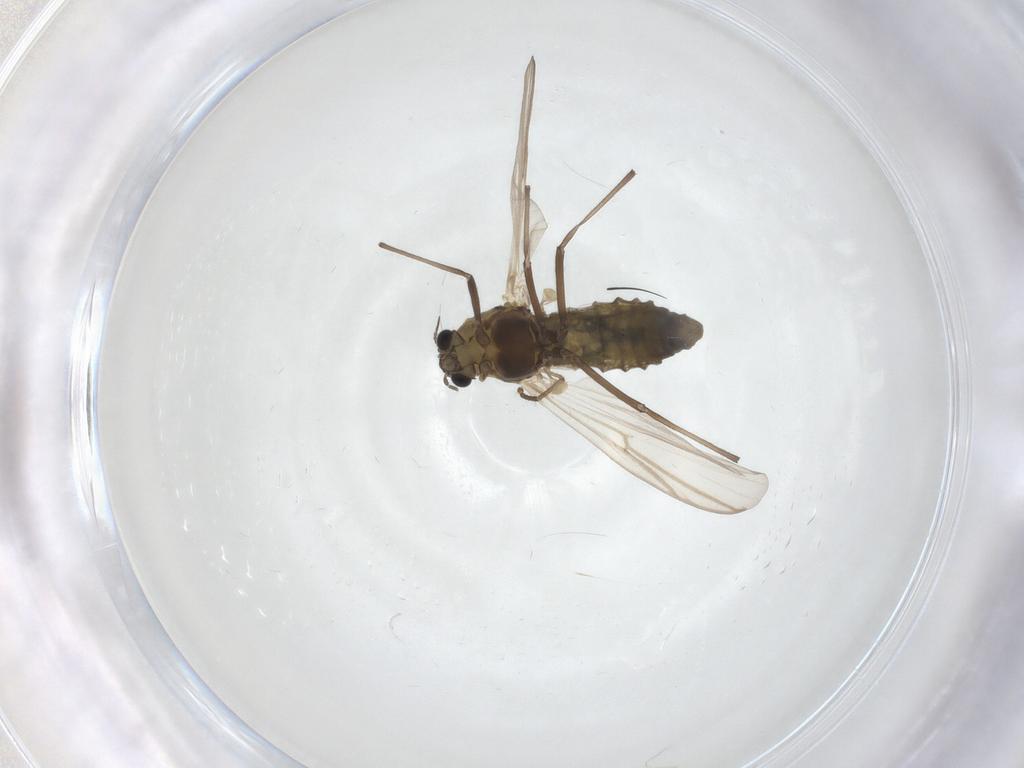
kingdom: Animalia
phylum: Arthropoda
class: Insecta
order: Diptera
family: Chironomidae
